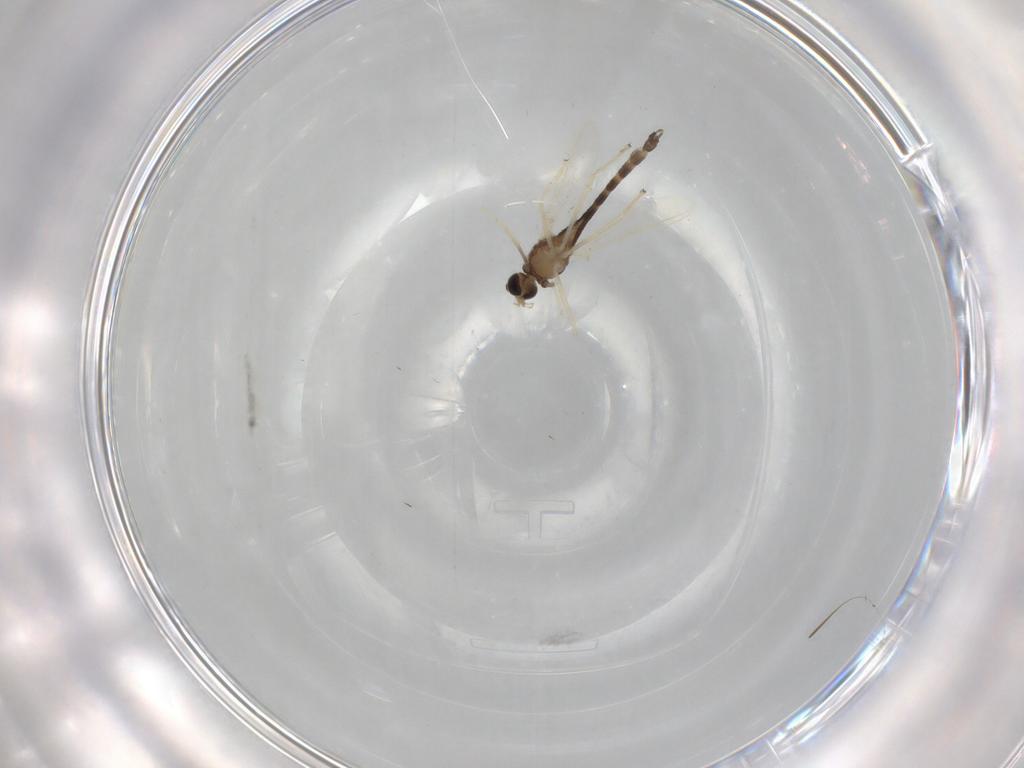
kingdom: Animalia
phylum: Arthropoda
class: Insecta
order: Diptera
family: Chironomidae
